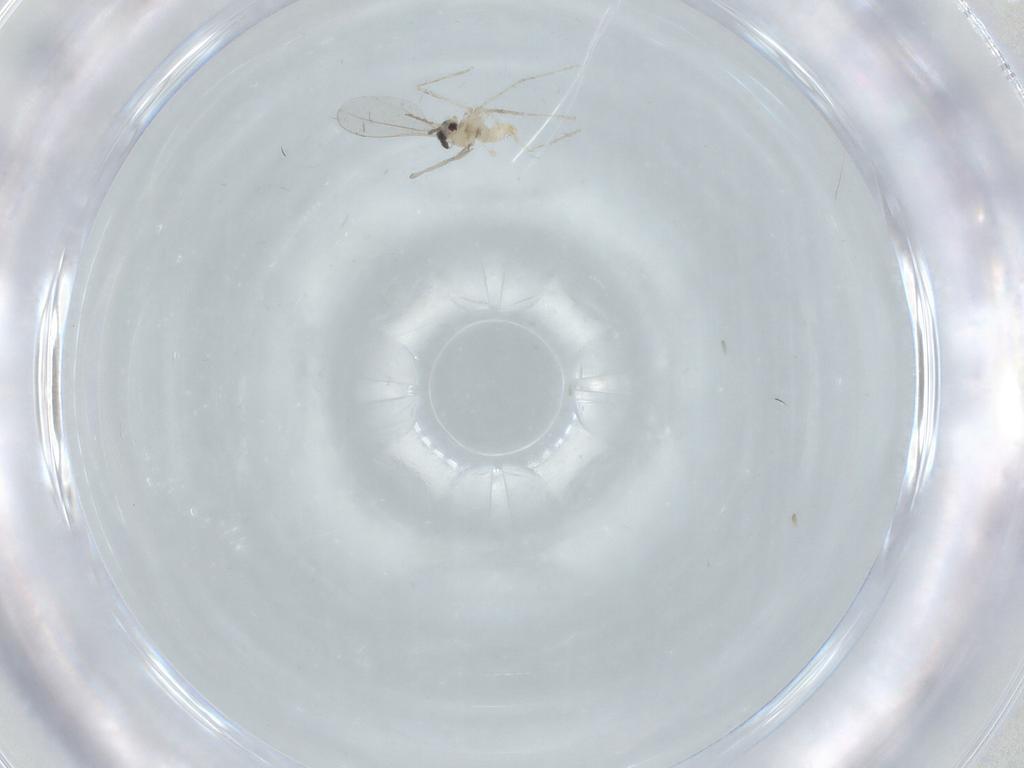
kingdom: Animalia
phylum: Arthropoda
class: Insecta
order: Diptera
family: Cecidomyiidae
